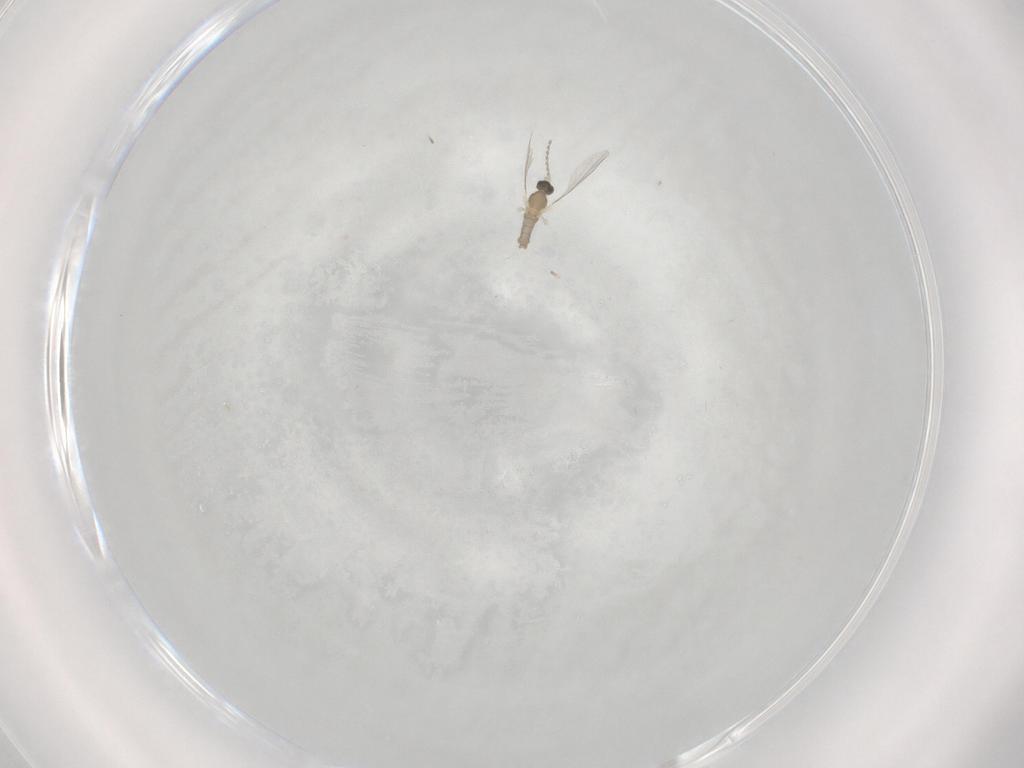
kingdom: Animalia
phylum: Arthropoda
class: Insecta
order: Diptera
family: Cecidomyiidae
